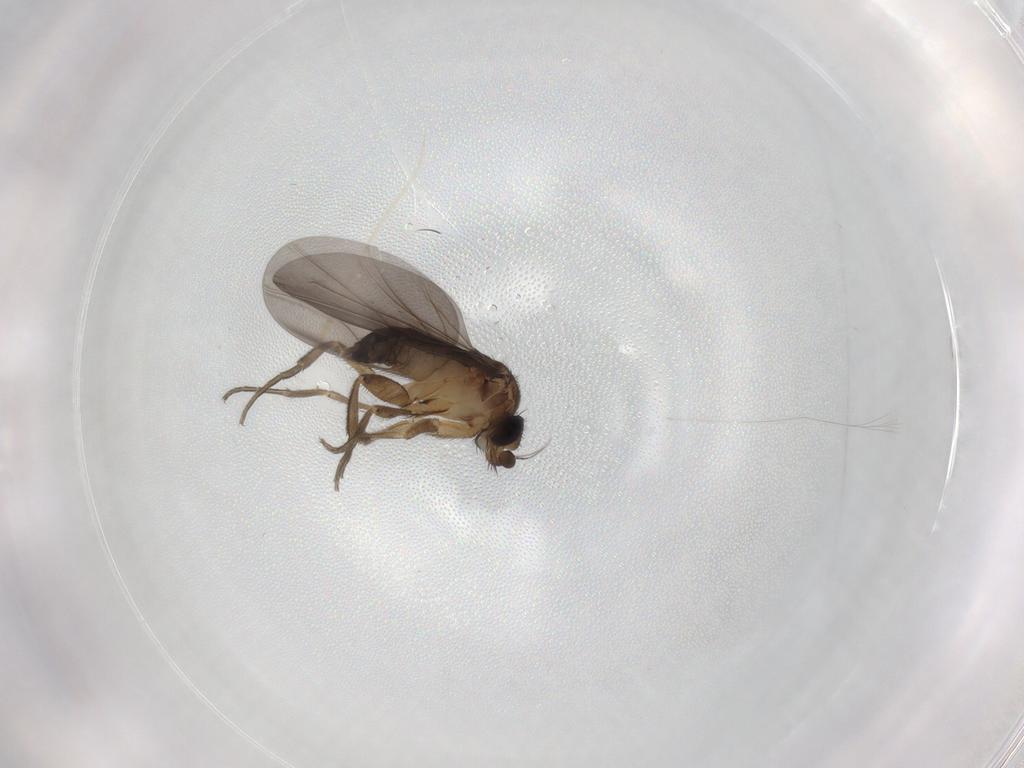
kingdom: Animalia
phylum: Arthropoda
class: Insecta
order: Diptera
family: Phoridae
